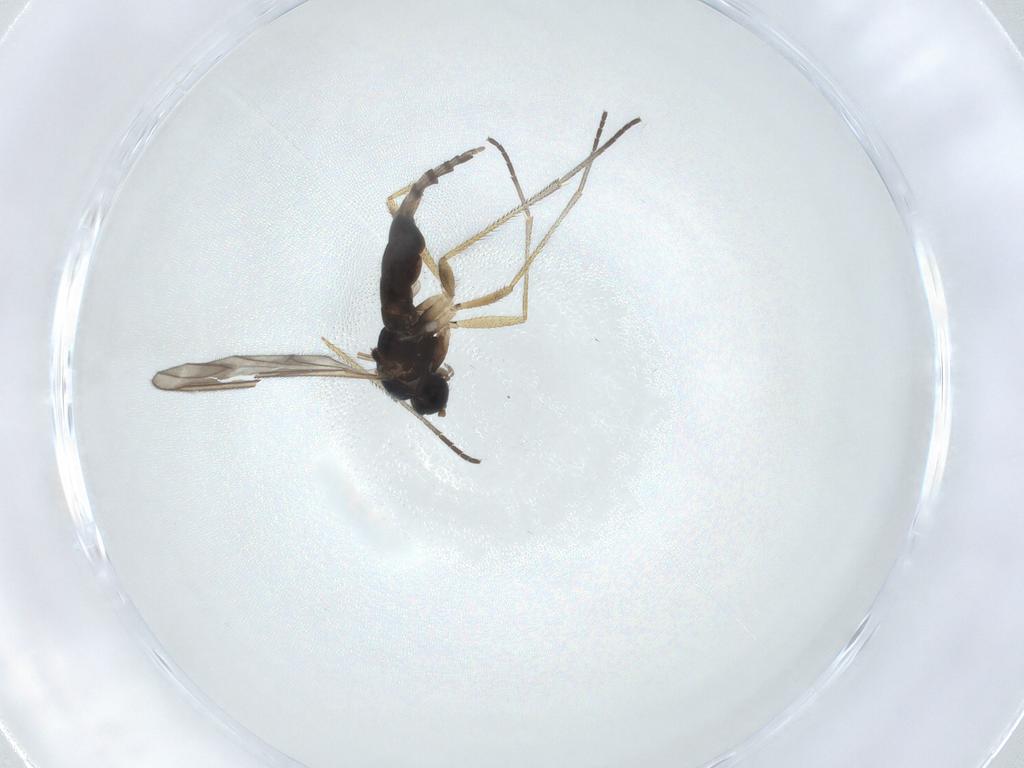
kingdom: Animalia
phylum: Arthropoda
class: Insecta
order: Diptera
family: Sciaridae
